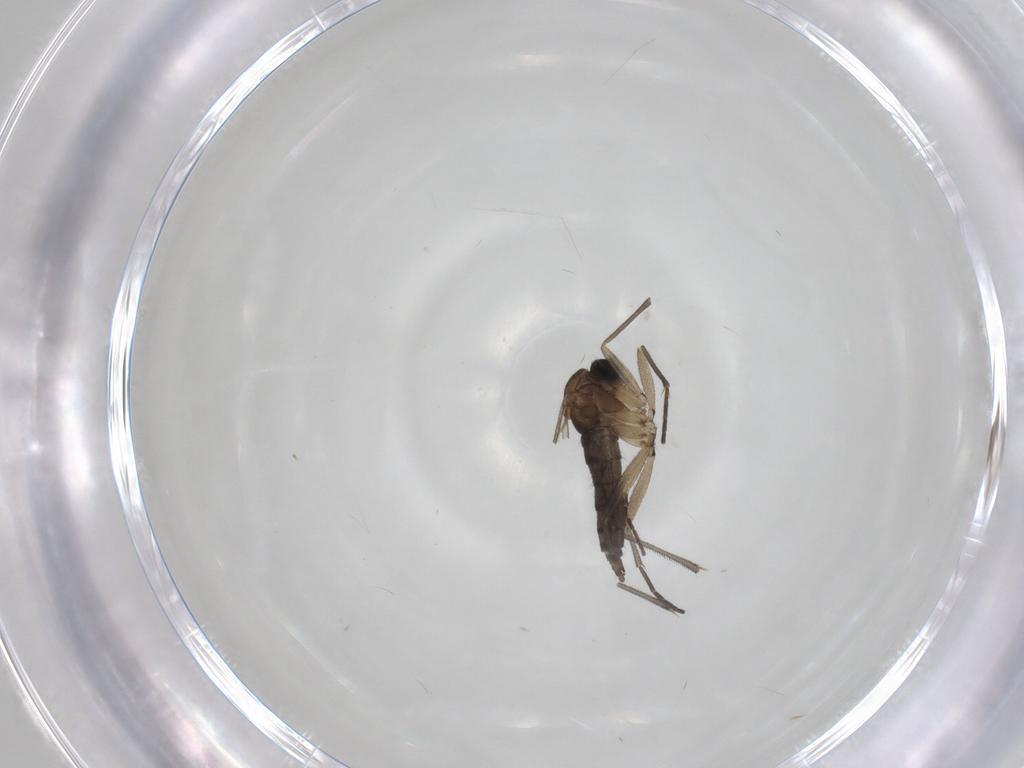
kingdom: Animalia
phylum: Arthropoda
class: Insecta
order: Diptera
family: Sciaridae
